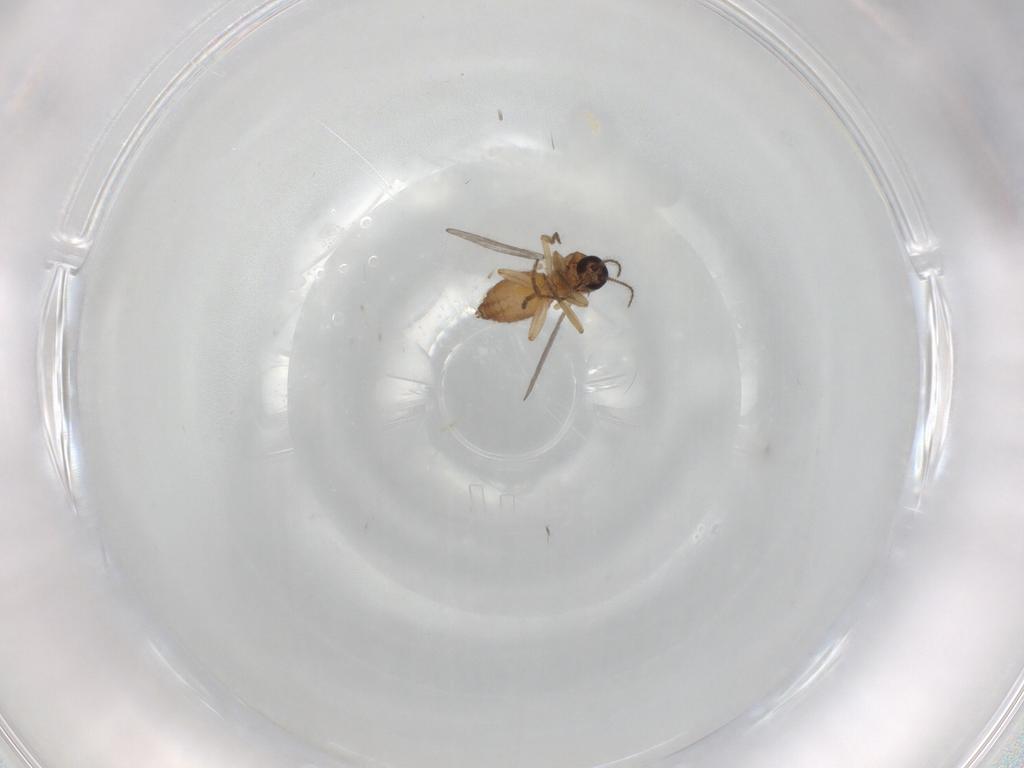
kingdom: Animalia
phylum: Arthropoda
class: Insecta
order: Diptera
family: Ceratopogonidae
